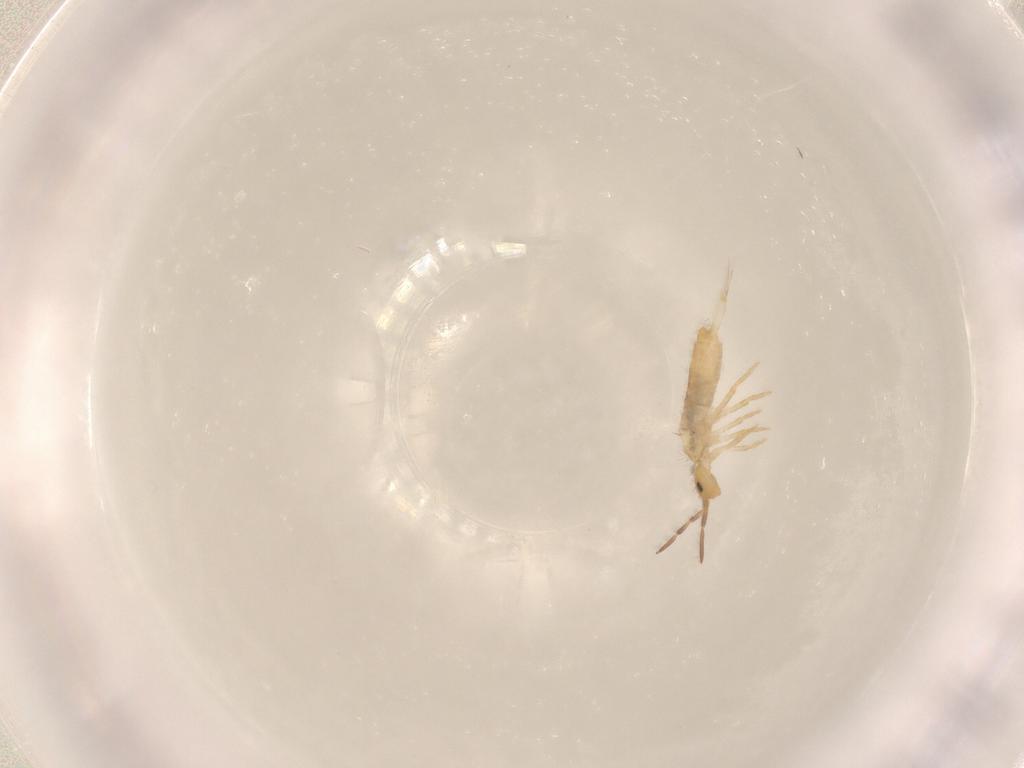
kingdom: Animalia
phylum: Arthropoda
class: Collembola
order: Entomobryomorpha
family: Entomobryidae
